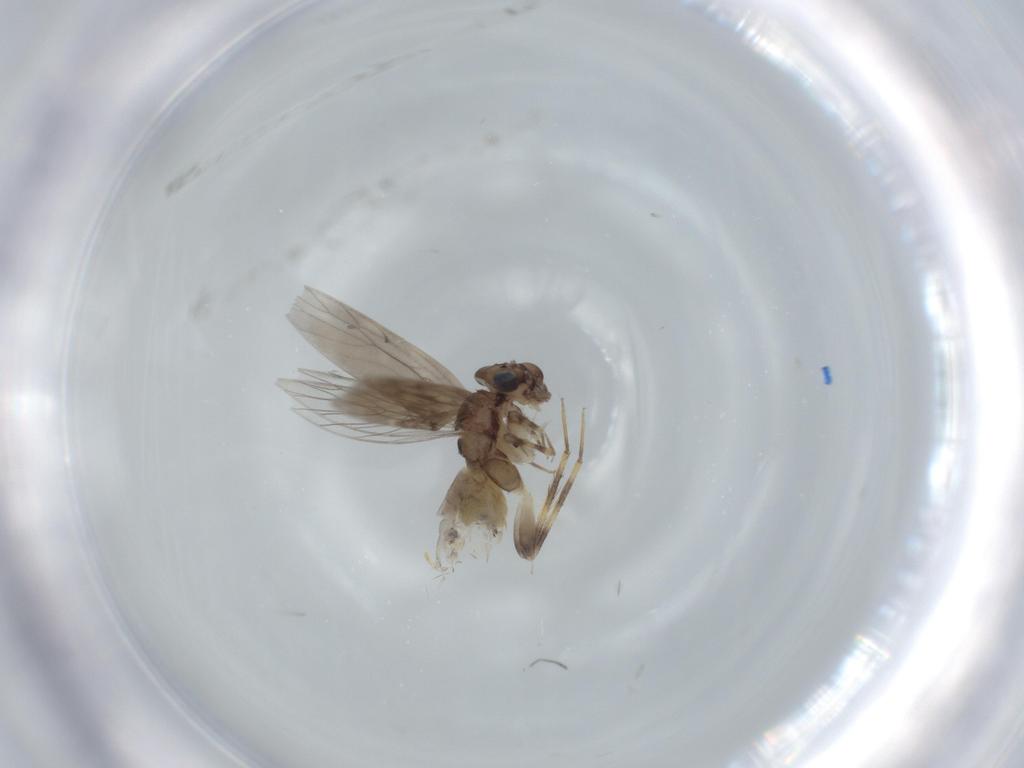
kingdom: Animalia
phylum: Arthropoda
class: Insecta
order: Psocodea
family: Lepidopsocidae
